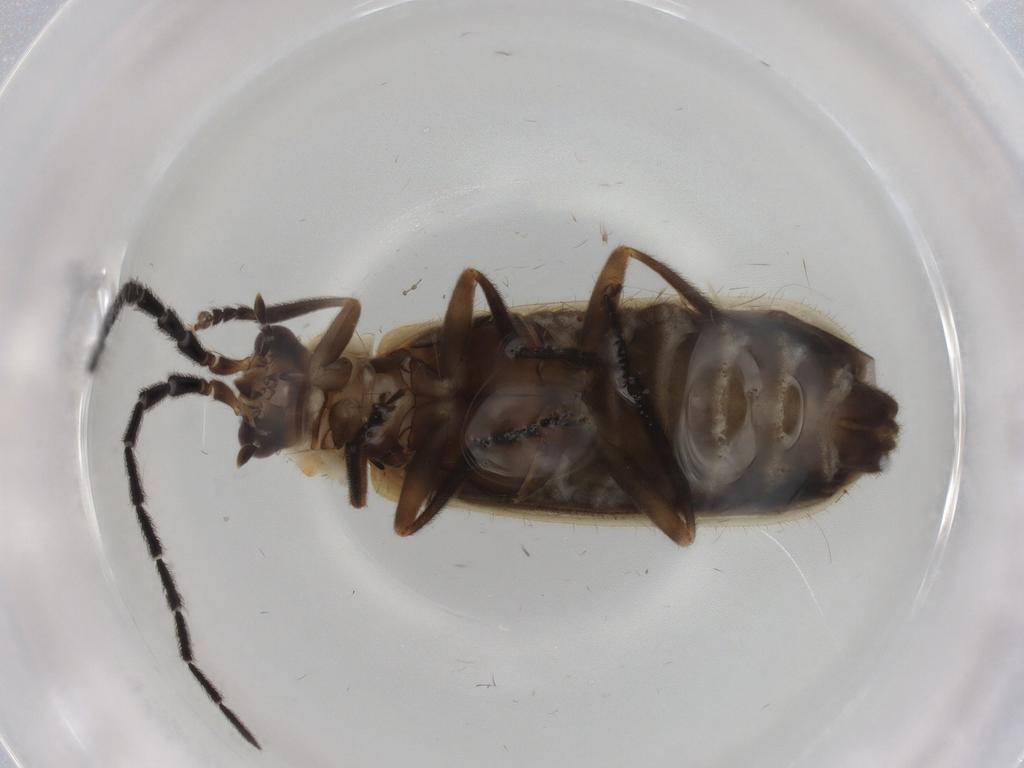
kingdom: Animalia
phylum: Arthropoda
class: Insecta
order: Coleoptera
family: Cantharidae
